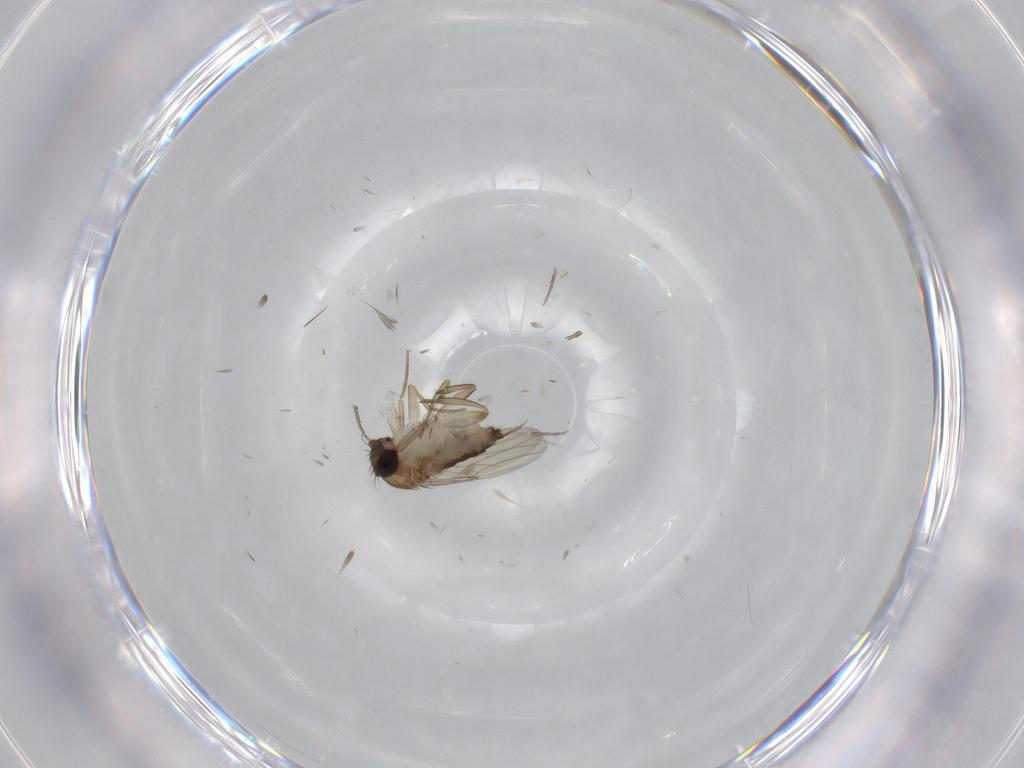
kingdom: Animalia
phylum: Arthropoda
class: Insecta
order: Diptera
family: Phoridae
